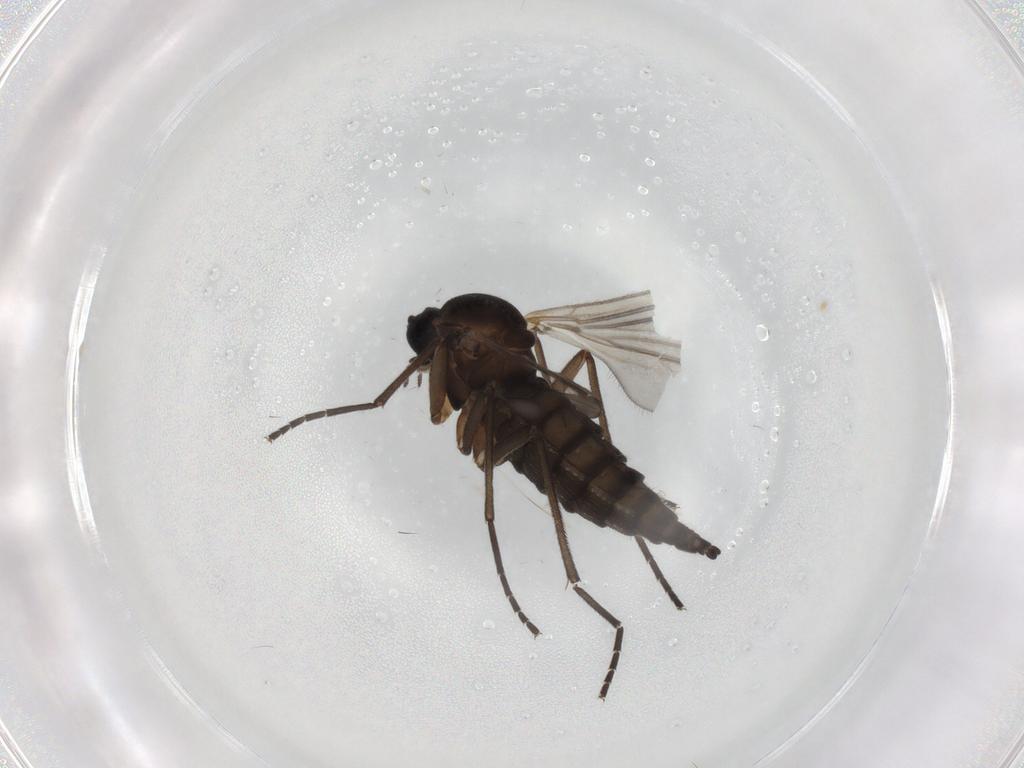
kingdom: Animalia
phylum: Arthropoda
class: Insecta
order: Diptera
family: Sciaridae
